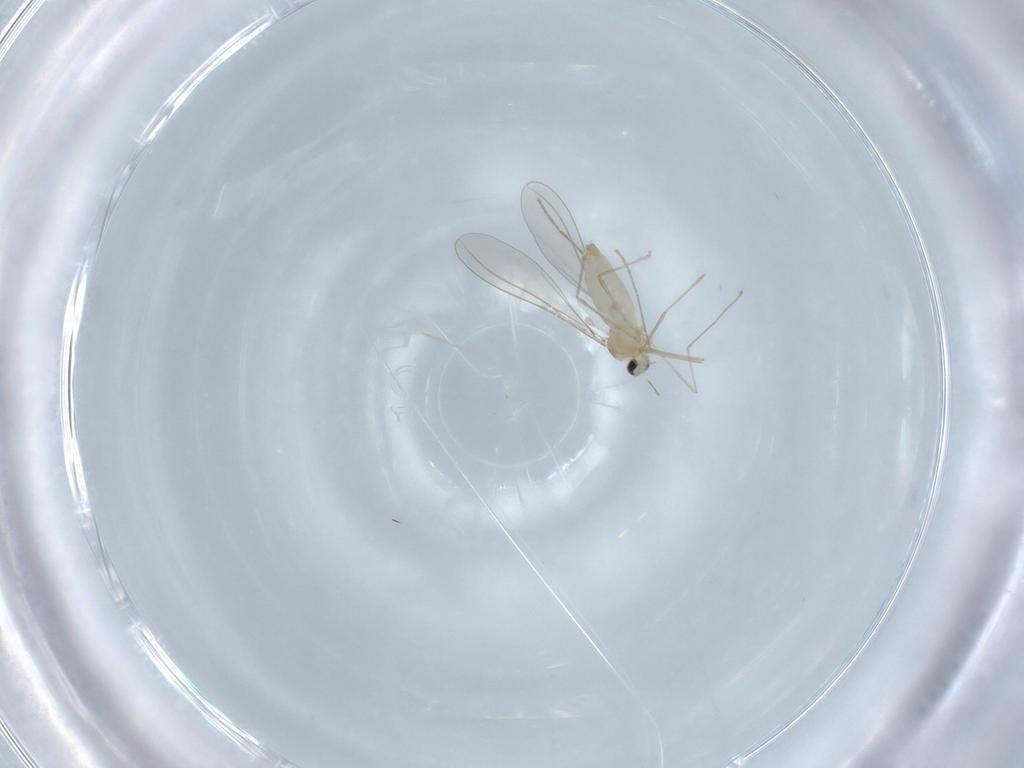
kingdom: Animalia
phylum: Arthropoda
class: Insecta
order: Diptera
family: Cecidomyiidae
